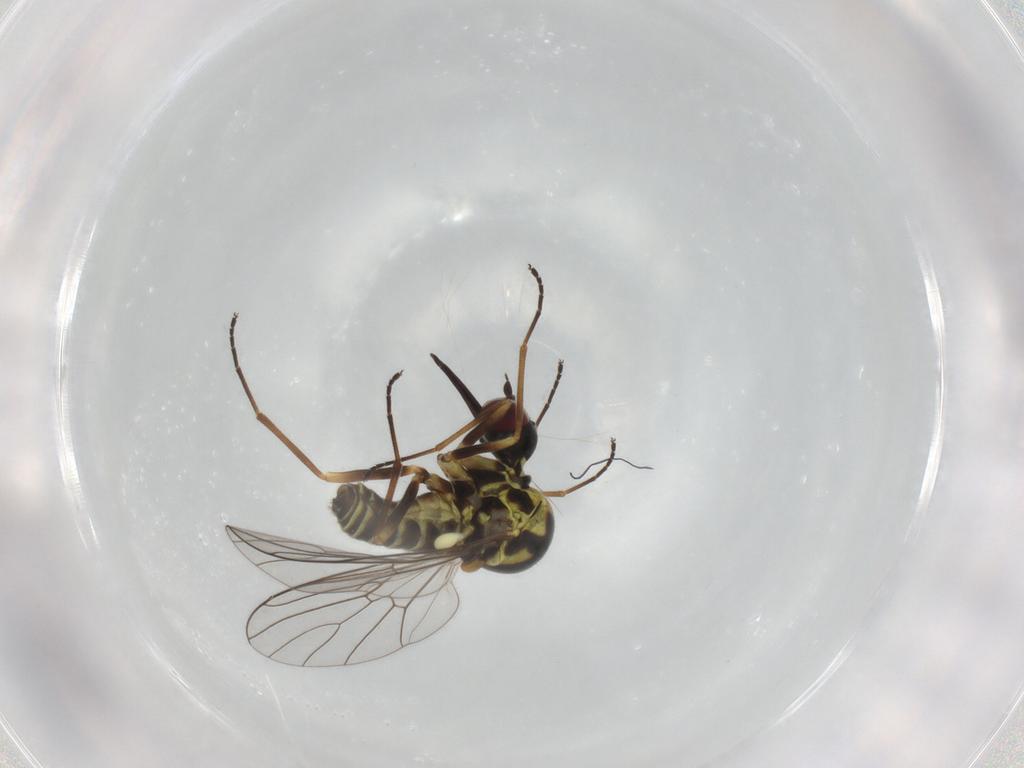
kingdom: Animalia
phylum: Arthropoda
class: Insecta
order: Diptera
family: Bombyliidae
